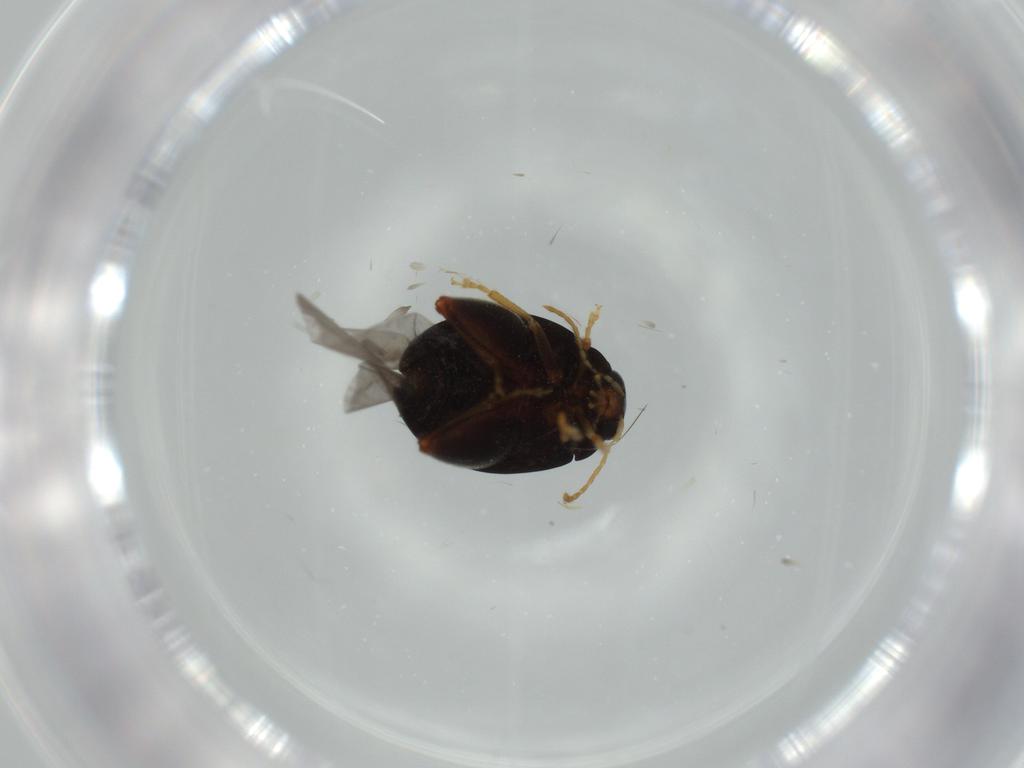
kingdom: Animalia
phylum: Arthropoda
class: Insecta
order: Coleoptera
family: Chrysomelidae
